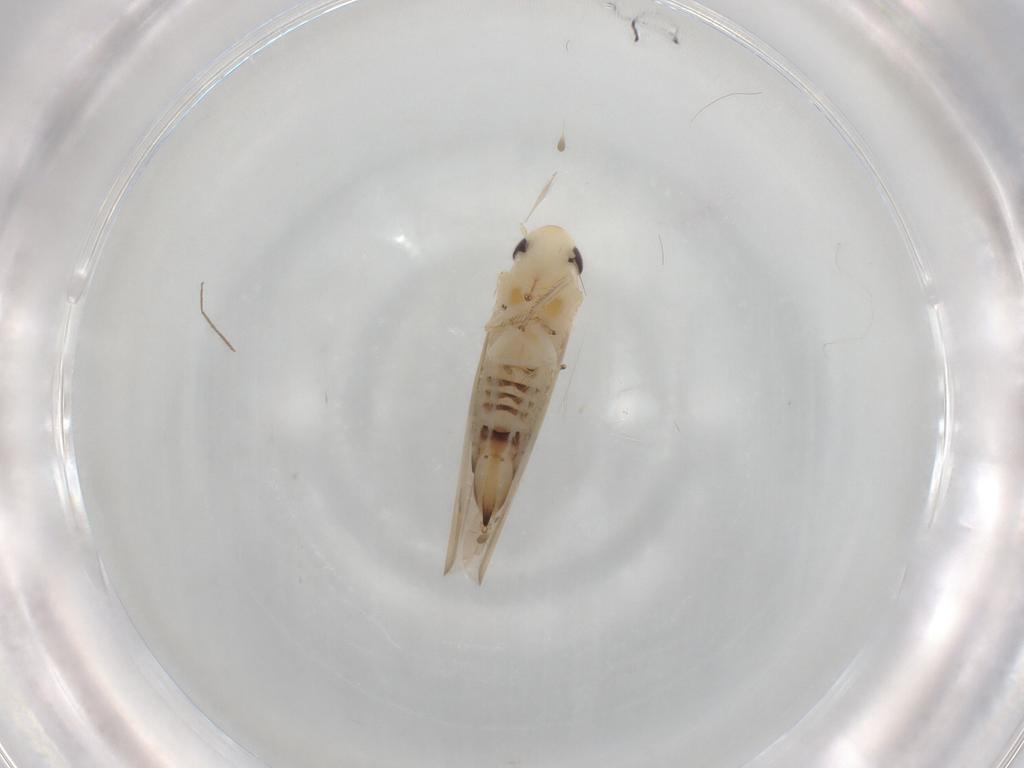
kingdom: Animalia
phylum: Arthropoda
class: Insecta
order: Hemiptera
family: Cicadellidae
